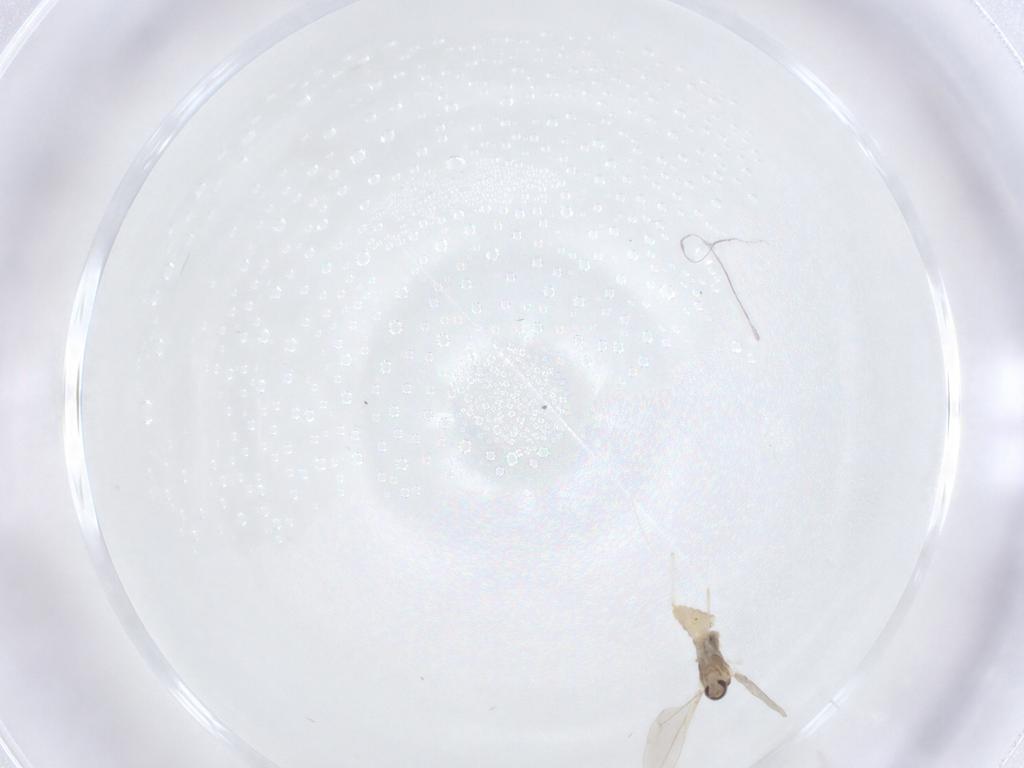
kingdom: Animalia
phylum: Arthropoda
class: Insecta
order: Diptera
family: Cecidomyiidae
